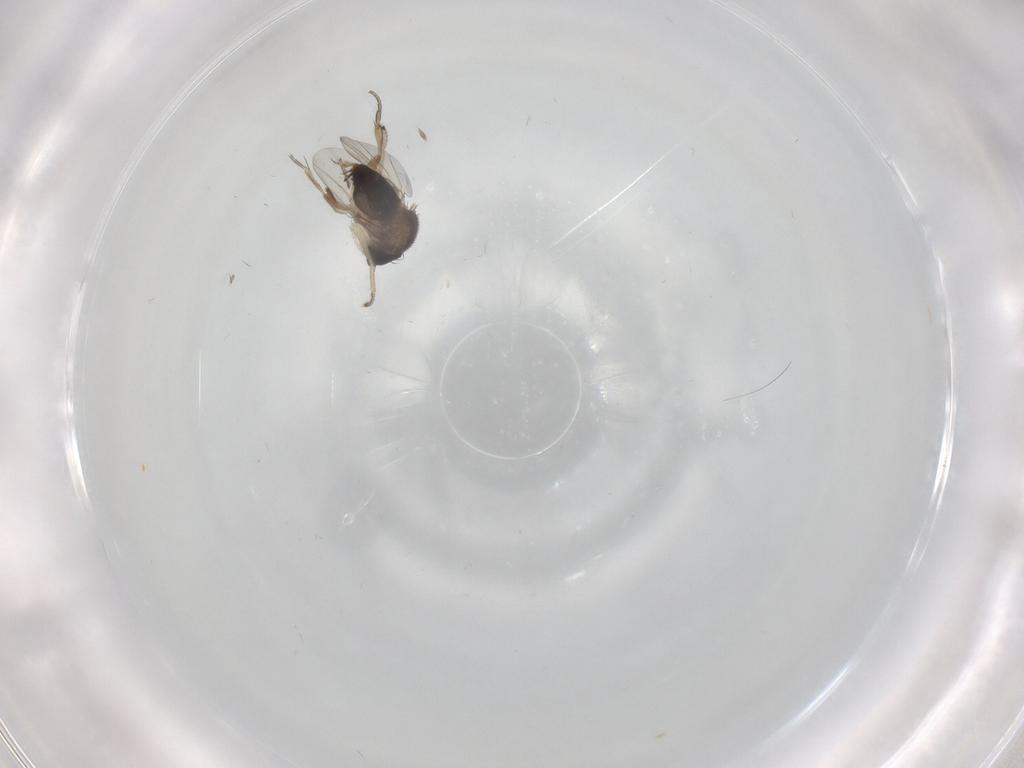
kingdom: Animalia
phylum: Arthropoda
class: Insecta
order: Diptera
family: Phoridae
